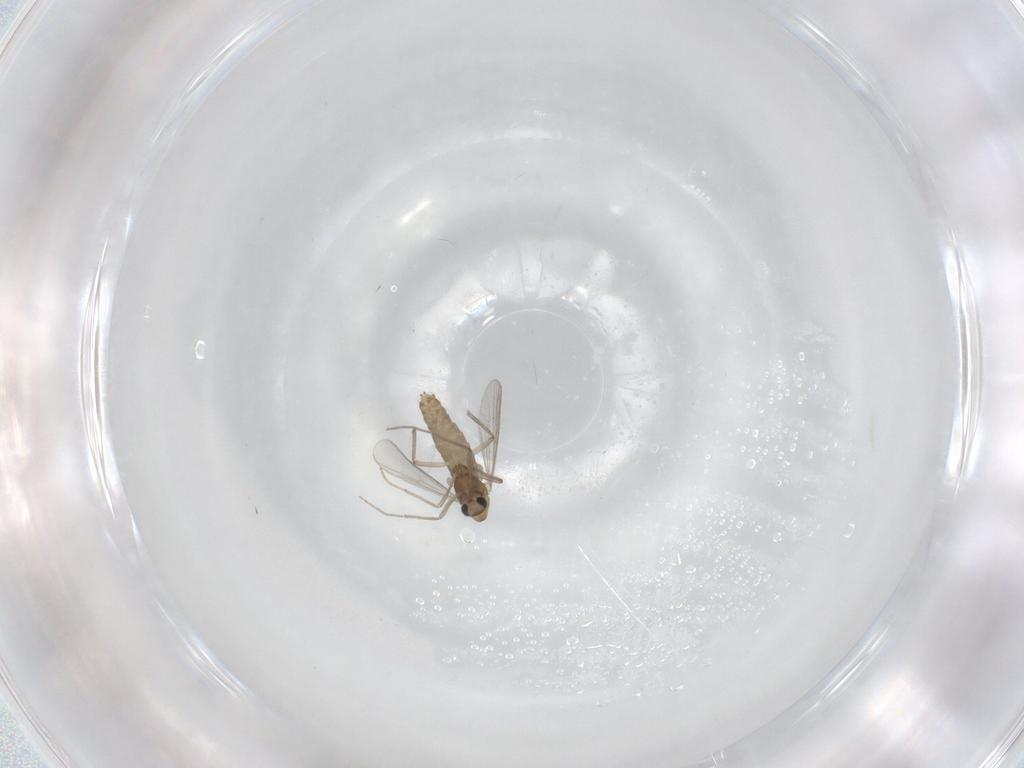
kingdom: Animalia
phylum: Arthropoda
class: Insecta
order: Diptera
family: Chironomidae
